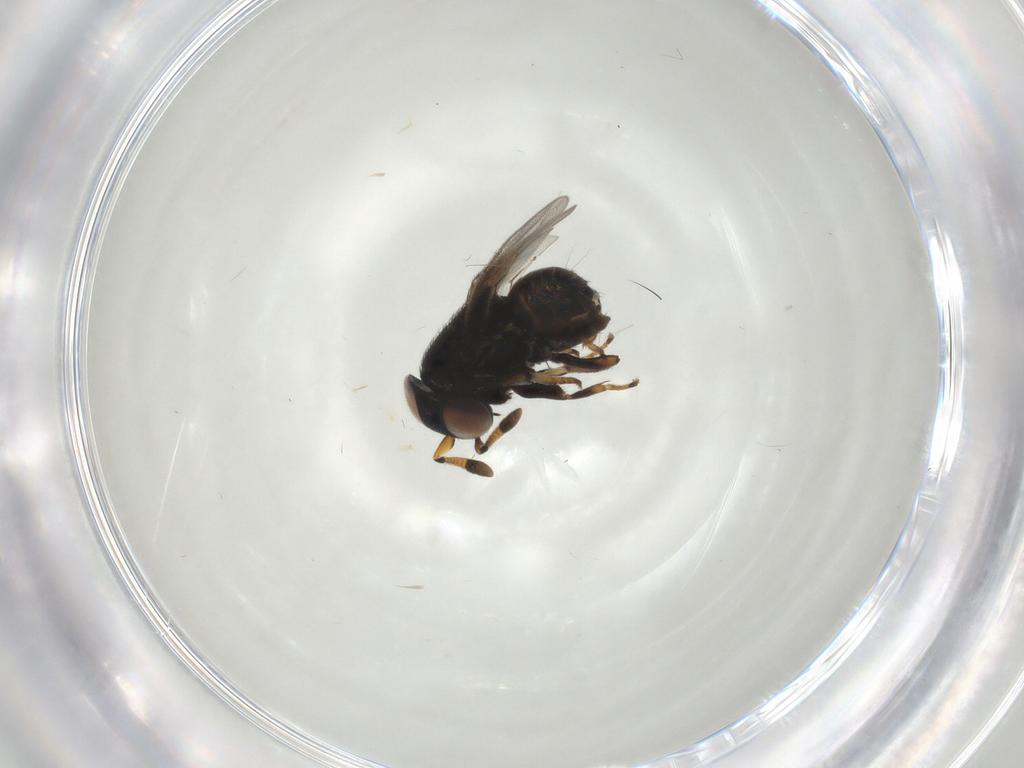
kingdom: Animalia
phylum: Arthropoda
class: Insecta
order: Hymenoptera
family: Encyrtidae
